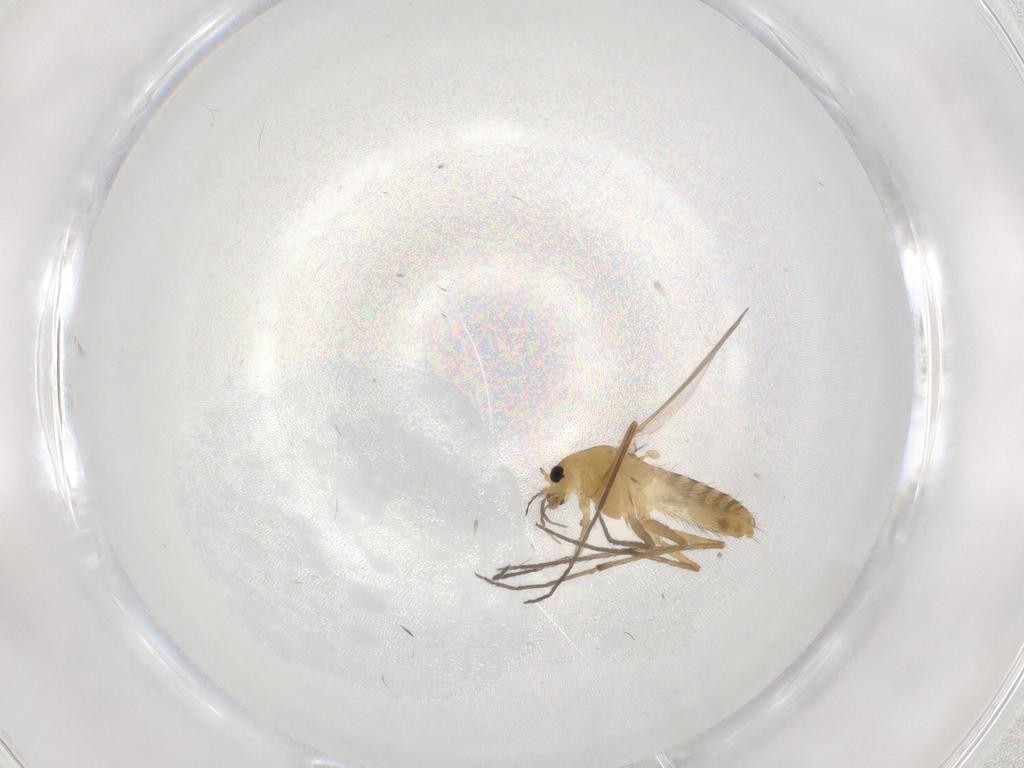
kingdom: Animalia
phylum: Arthropoda
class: Insecta
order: Diptera
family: Chironomidae
